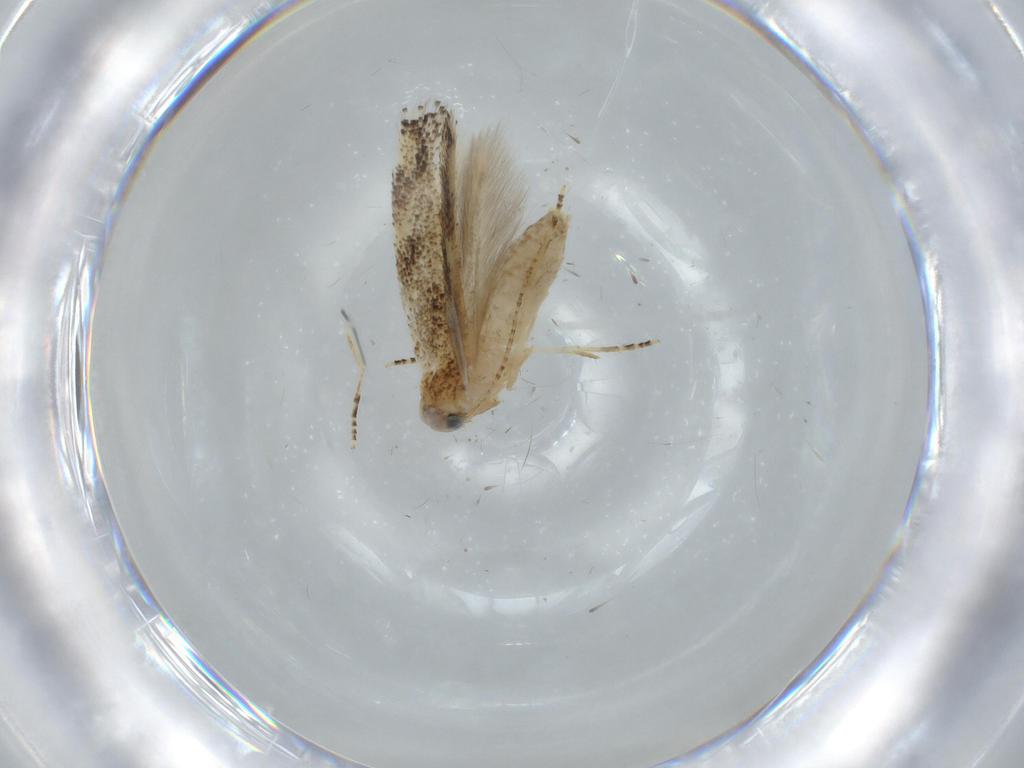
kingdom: Animalia
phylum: Arthropoda
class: Insecta
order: Lepidoptera
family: Bucculatricidae
